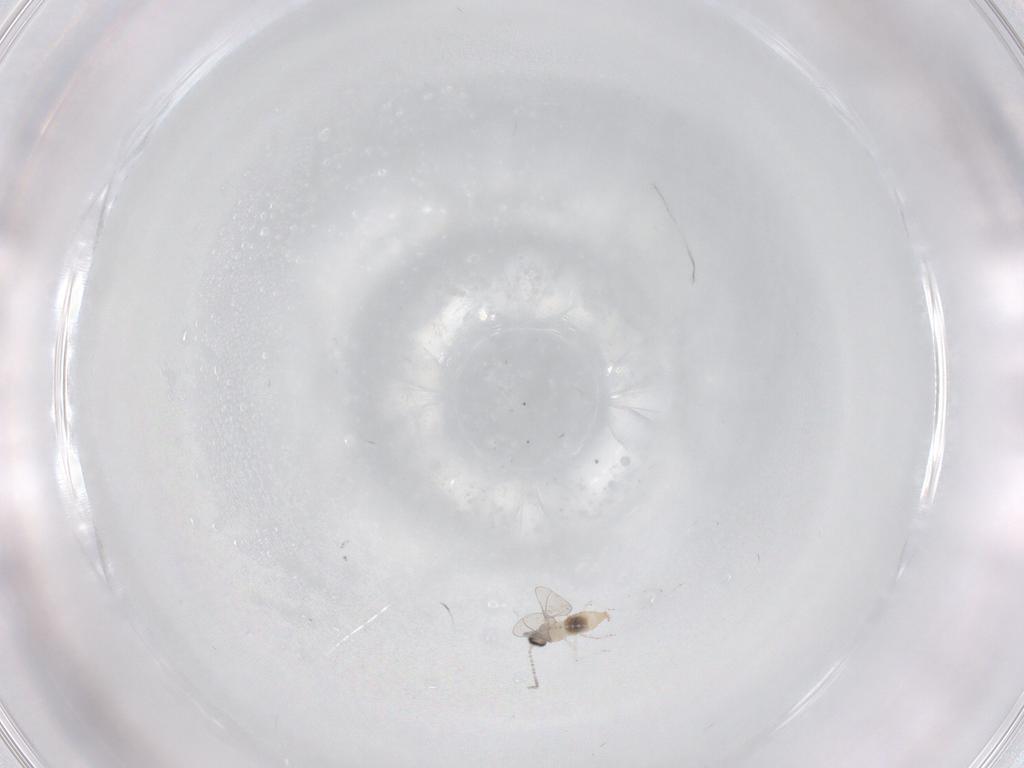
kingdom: Animalia
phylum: Arthropoda
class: Insecta
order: Diptera
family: Cecidomyiidae
